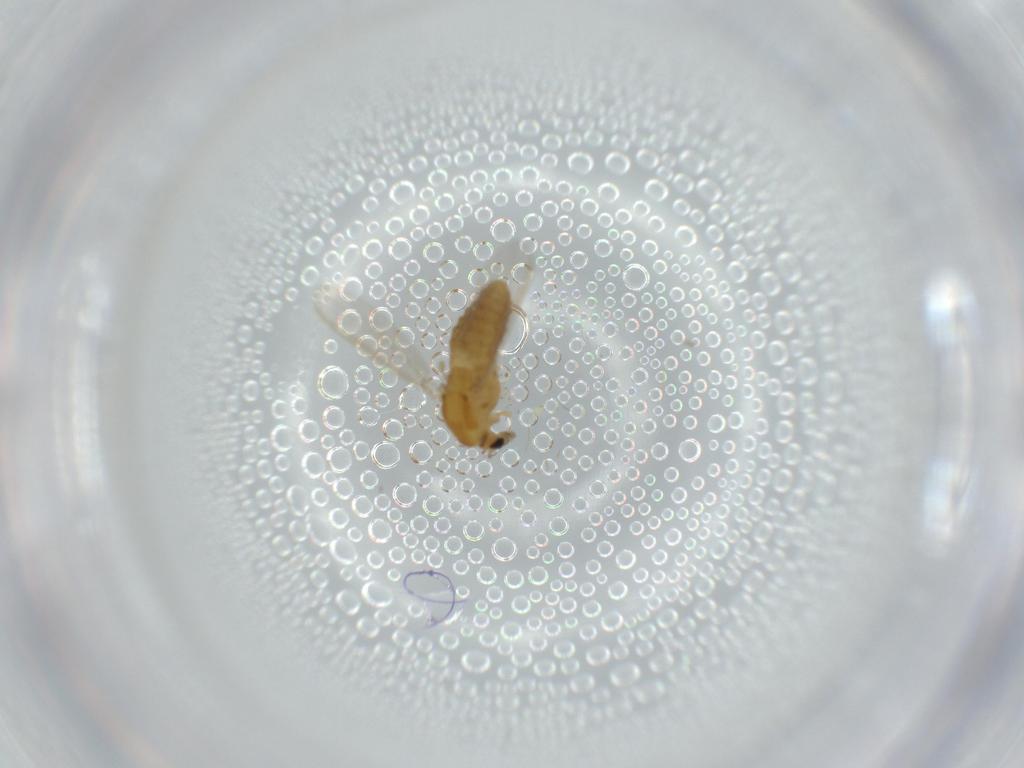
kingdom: Animalia
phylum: Arthropoda
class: Insecta
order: Diptera
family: Chironomidae
